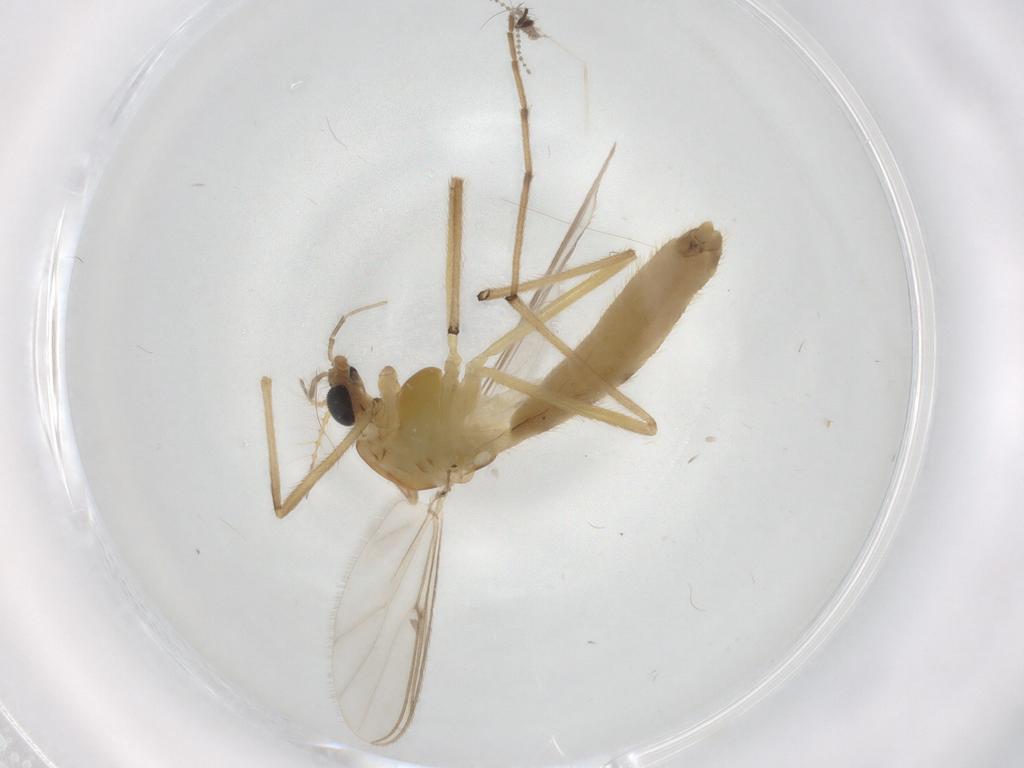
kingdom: Animalia
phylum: Arthropoda
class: Insecta
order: Diptera
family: Chironomidae
